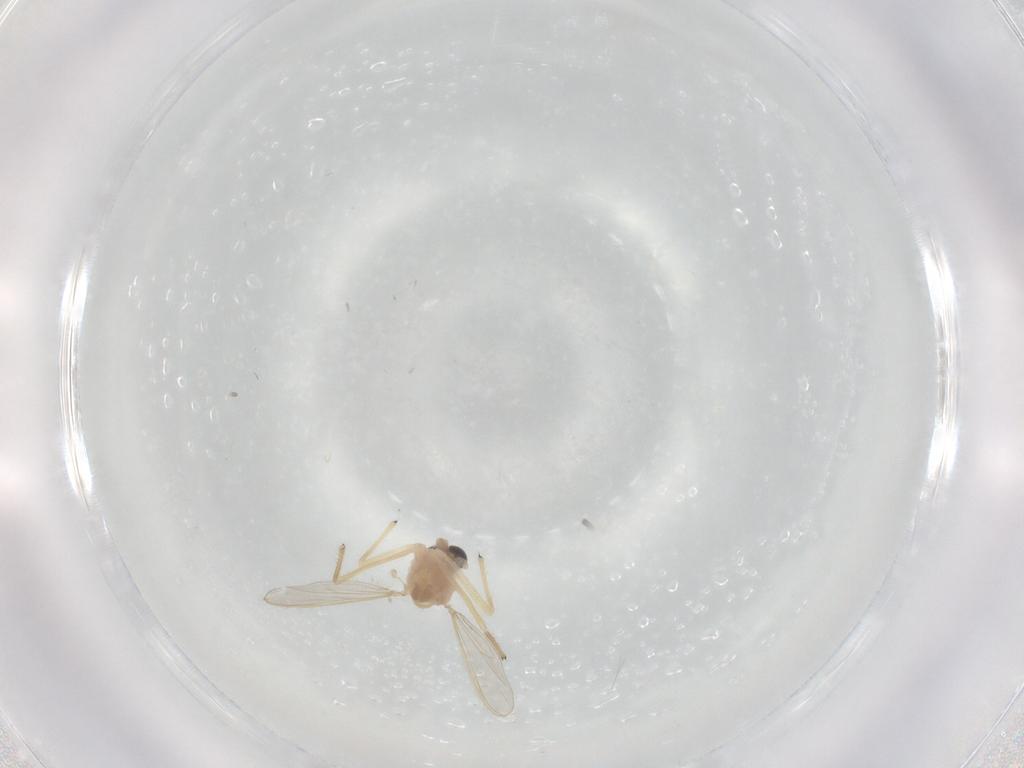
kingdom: Animalia
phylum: Arthropoda
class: Insecta
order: Diptera
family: Chironomidae
